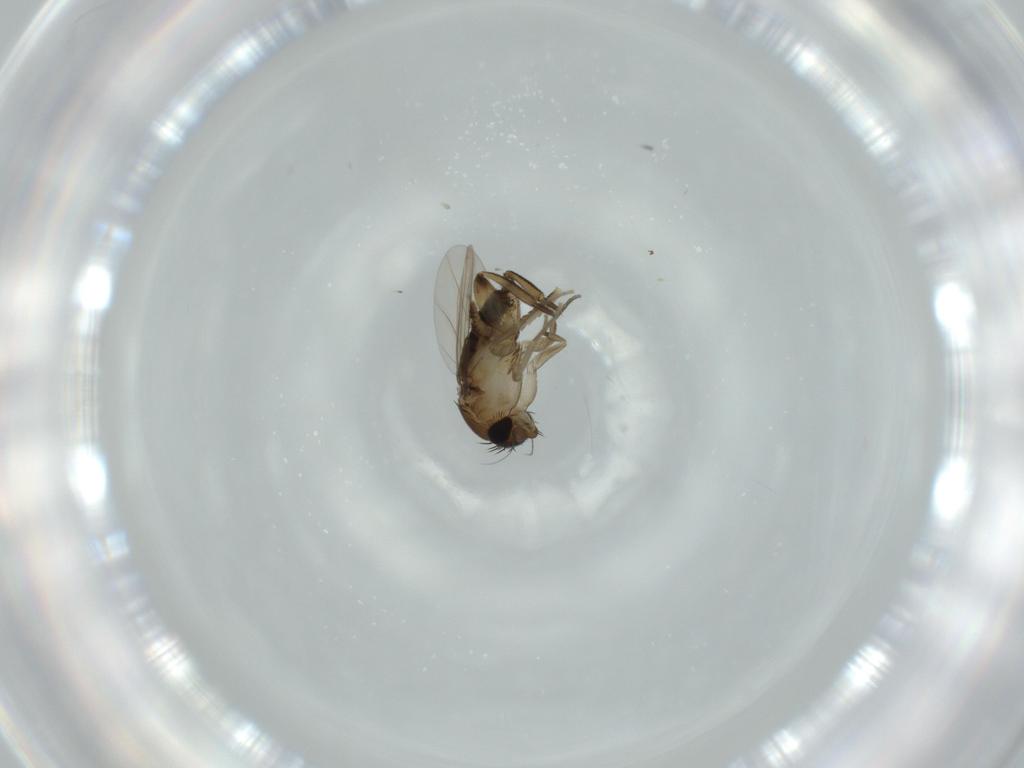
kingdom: Animalia
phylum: Arthropoda
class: Insecta
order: Diptera
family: Phoridae
